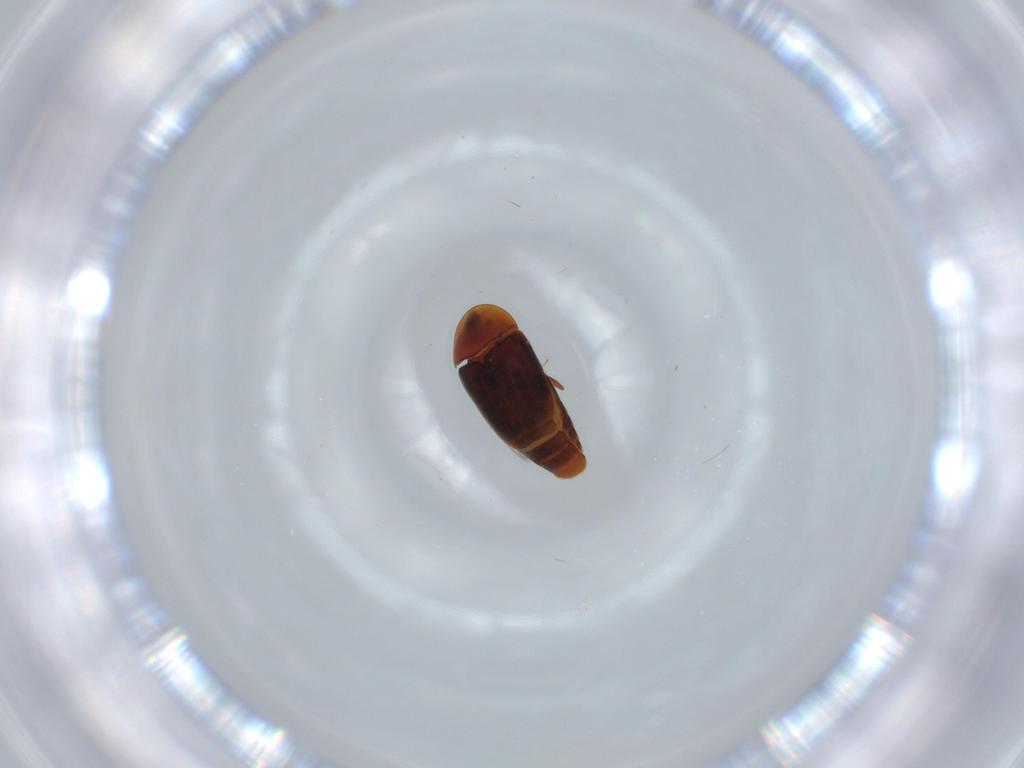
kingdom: Animalia
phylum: Arthropoda
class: Insecta
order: Coleoptera
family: Corylophidae
